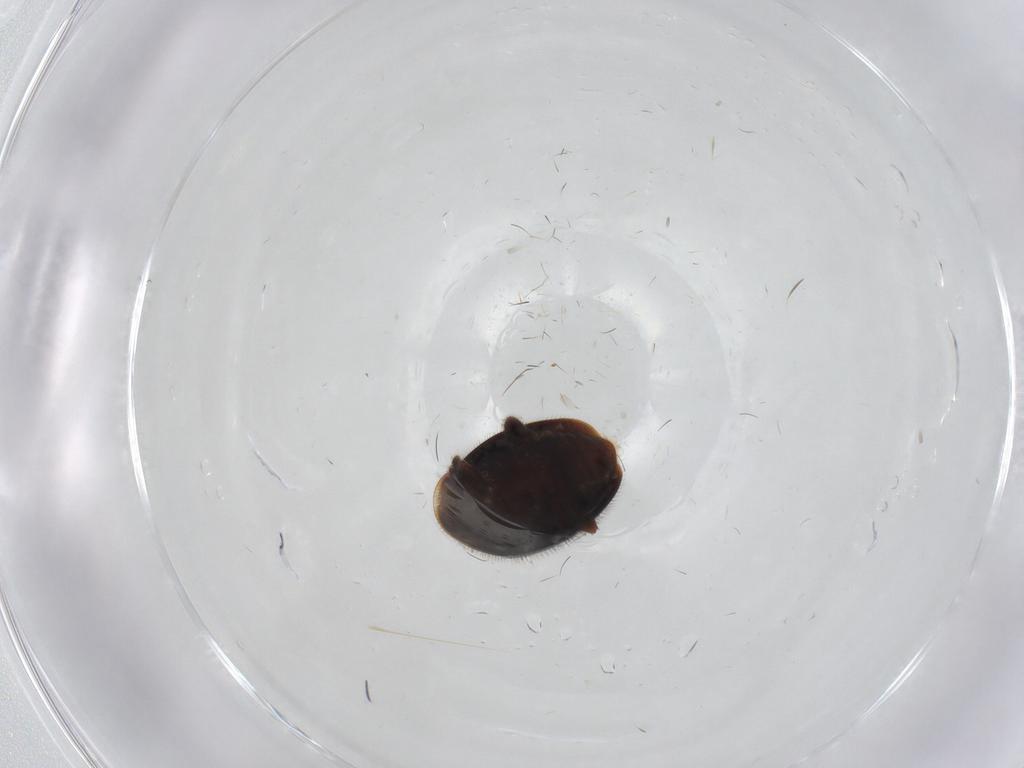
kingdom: Animalia
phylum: Arthropoda
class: Insecta
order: Coleoptera
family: Corylophidae
